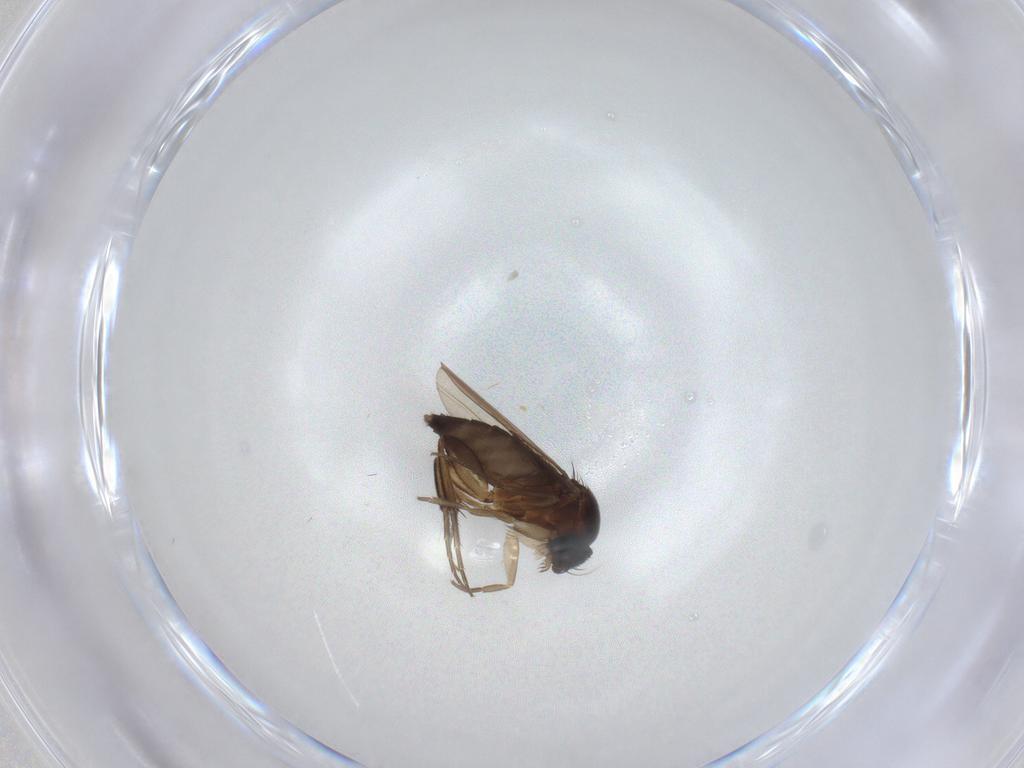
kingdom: Animalia
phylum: Arthropoda
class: Insecta
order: Diptera
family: Phoridae
